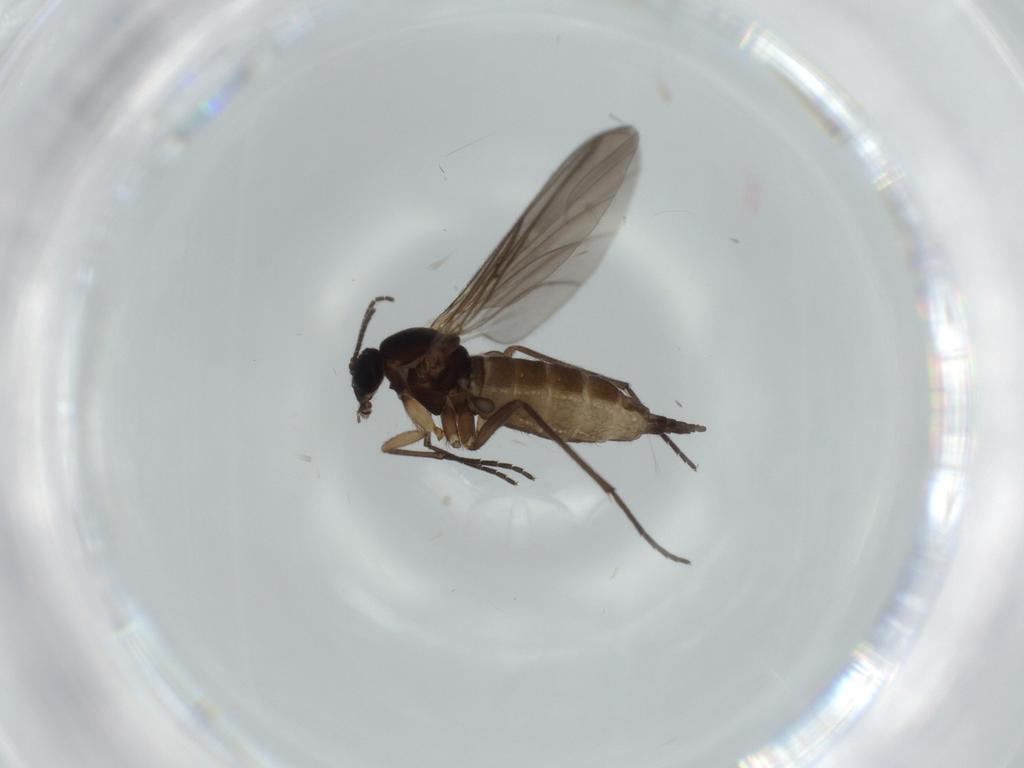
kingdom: Animalia
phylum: Arthropoda
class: Insecta
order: Diptera
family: Sciaridae
